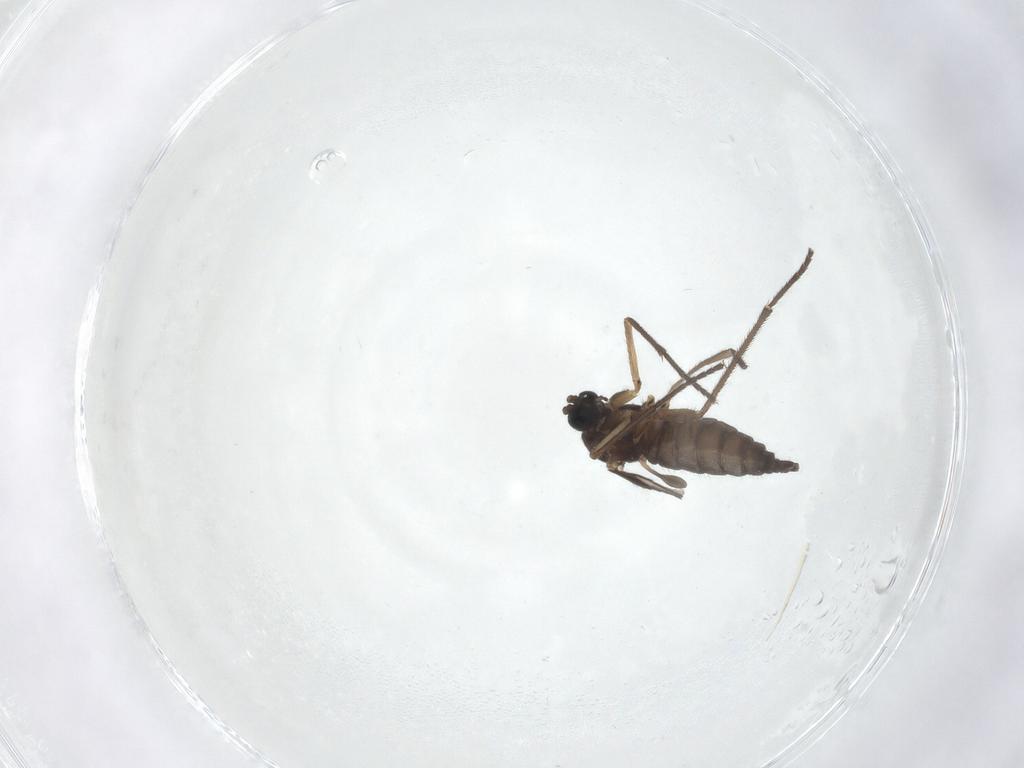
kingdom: Animalia
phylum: Arthropoda
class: Insecta
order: Diptera
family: Sciaridae
